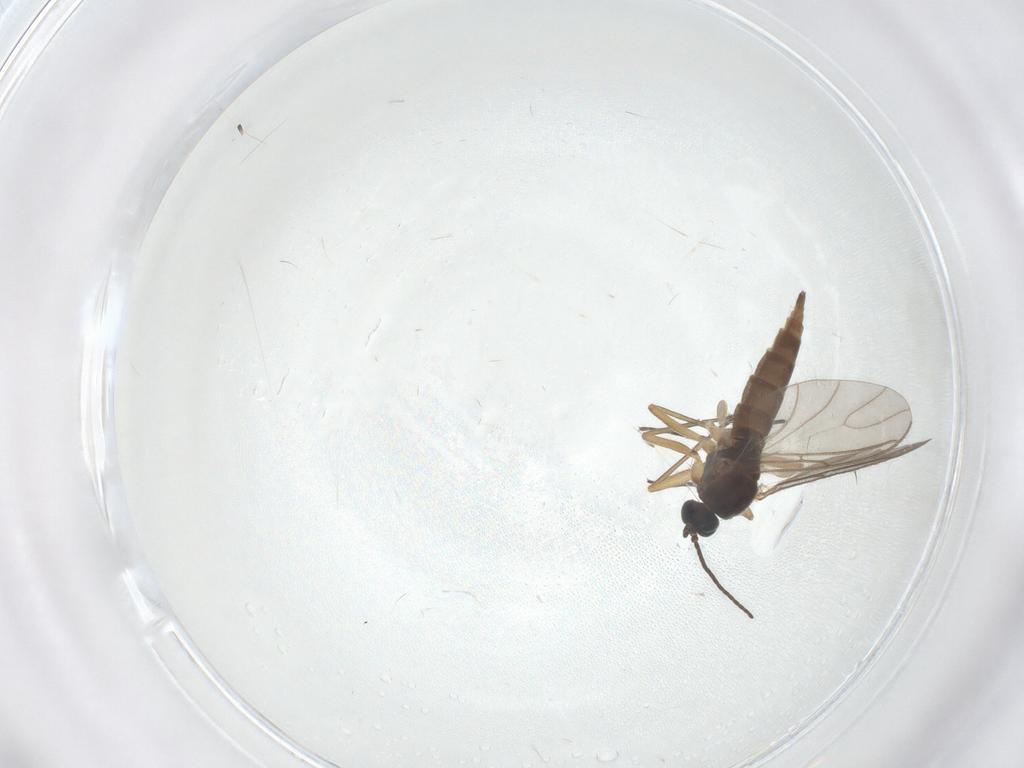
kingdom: Animalia
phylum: Arthropoda
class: Insecta
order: Diptera
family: Sciaridae
